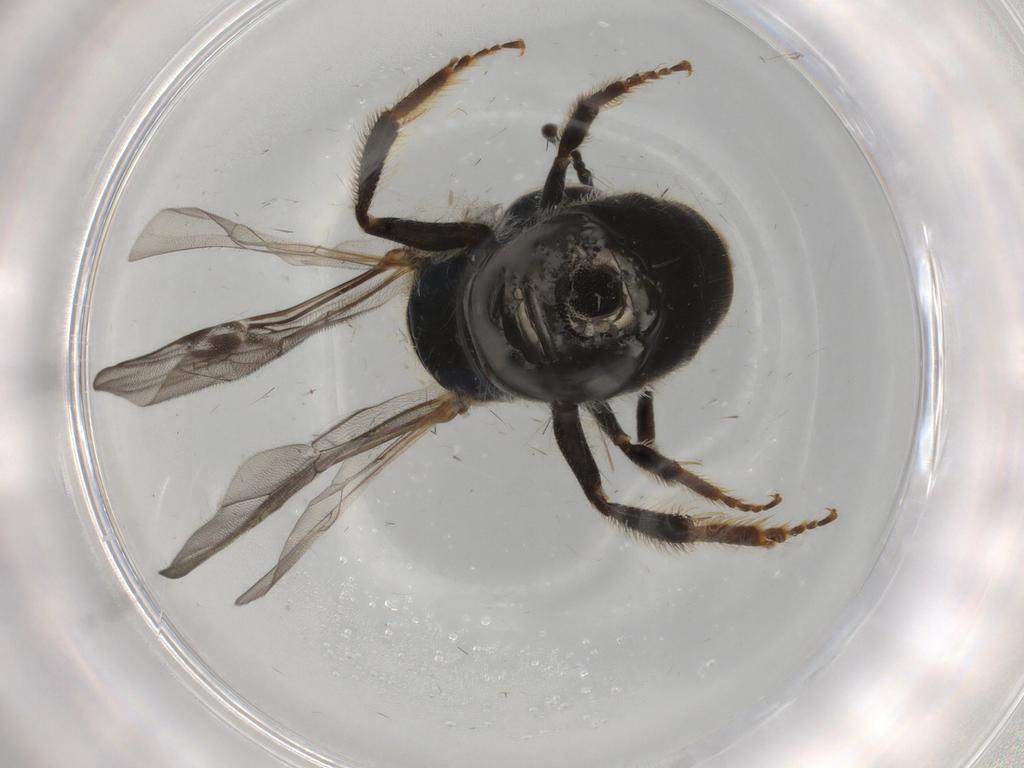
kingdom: Animalia
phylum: Arthropoda
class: Insecta
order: Hymenoptera
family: Halictidae
